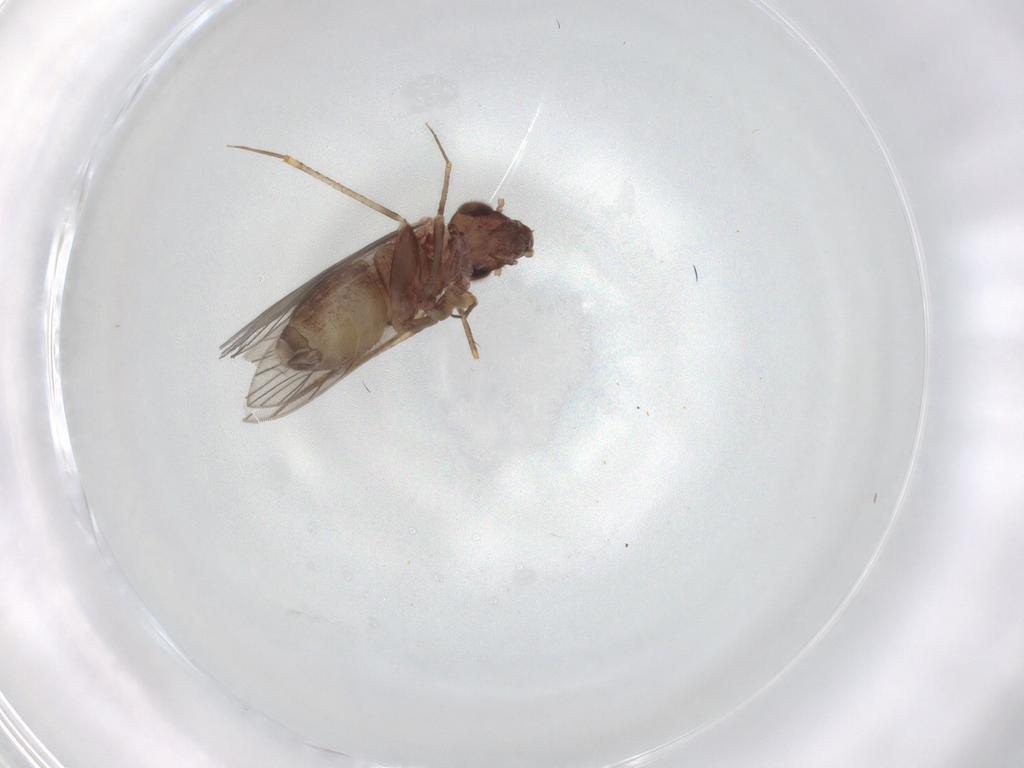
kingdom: Animalia
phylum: Arthropoda
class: Insecta
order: Psocodea
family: Lepidopsocidae
